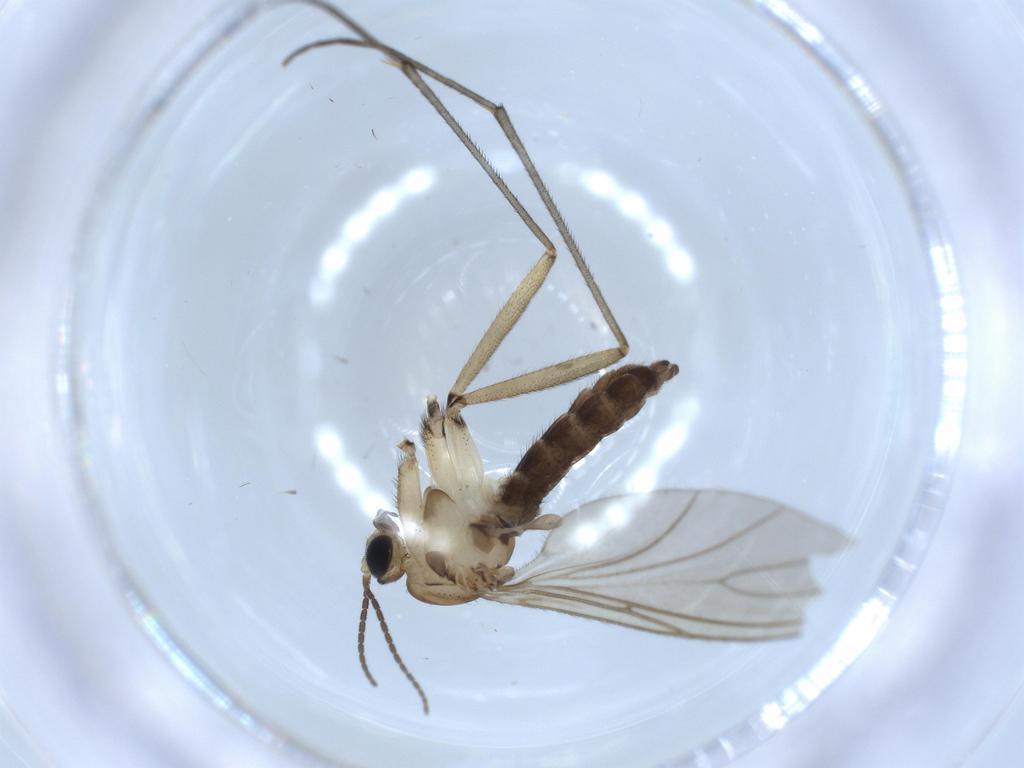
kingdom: Animalia
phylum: Arthropoda
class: Insecta
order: Diptera
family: Sciaridae
